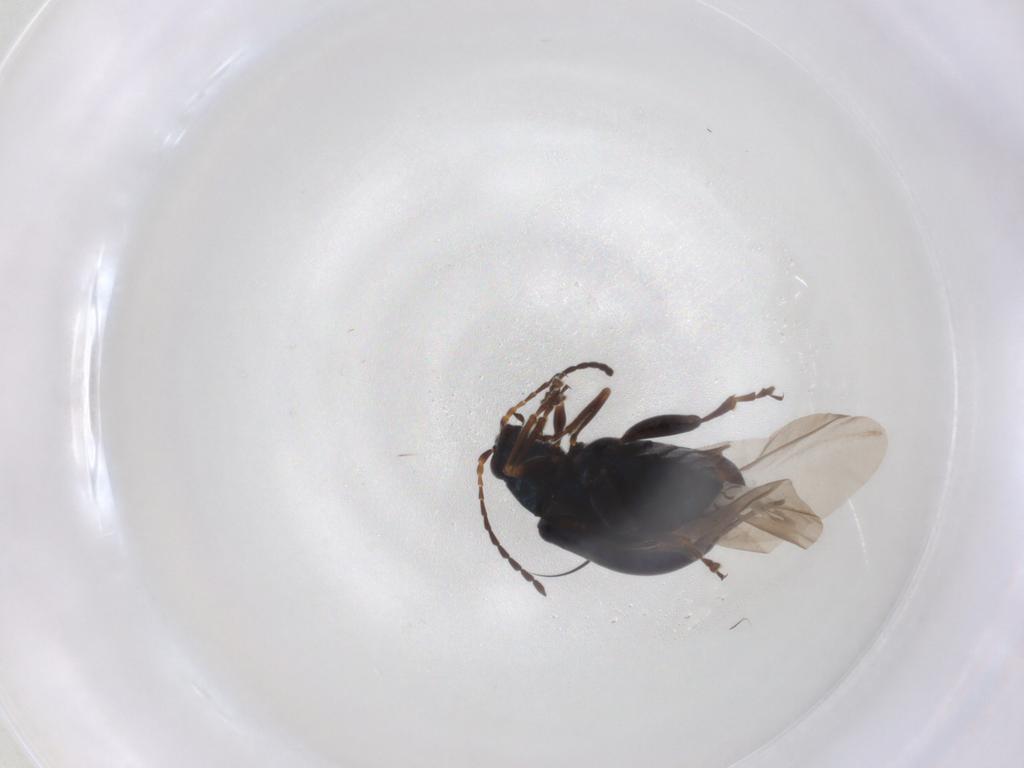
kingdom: Animalia
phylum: Arthropoda
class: Insecta
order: Coleoptera
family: Chrysomelidae
